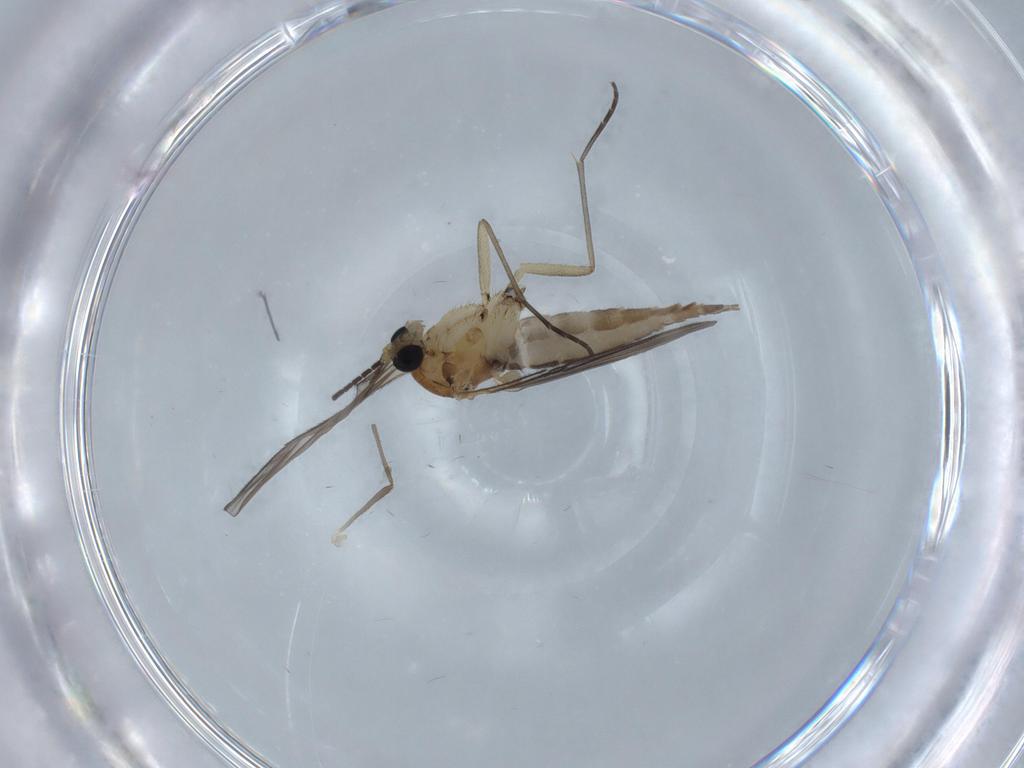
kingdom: Animalia
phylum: Arthropoda
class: Insecta
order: Diptera
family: Sciaridae
